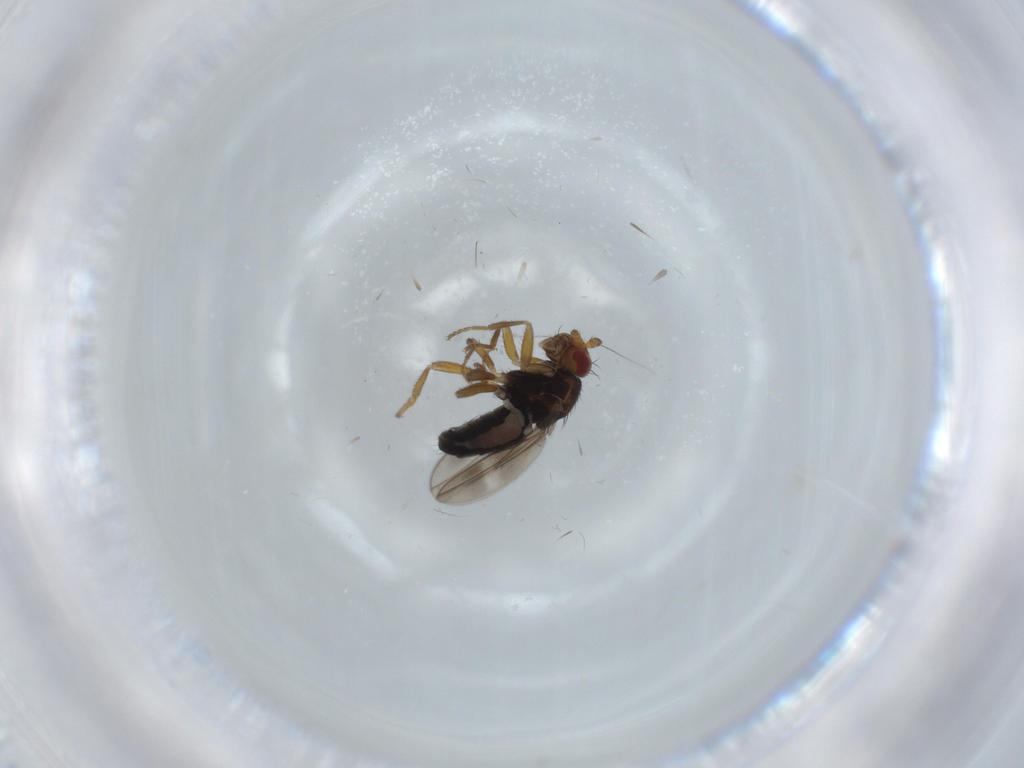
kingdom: Animalia
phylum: Arthropoda
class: Insecta
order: Diptera
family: Sphaeroceridae
